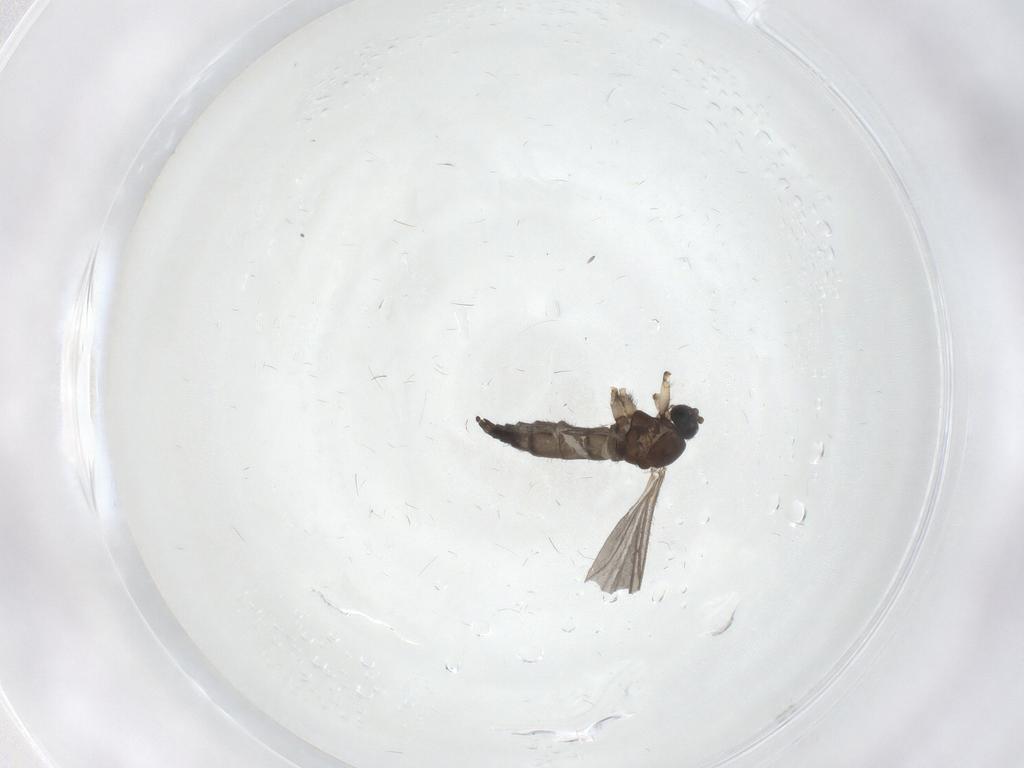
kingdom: Animalia
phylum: Arthropoda
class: Insecta
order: Diptera
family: Sciaridae
